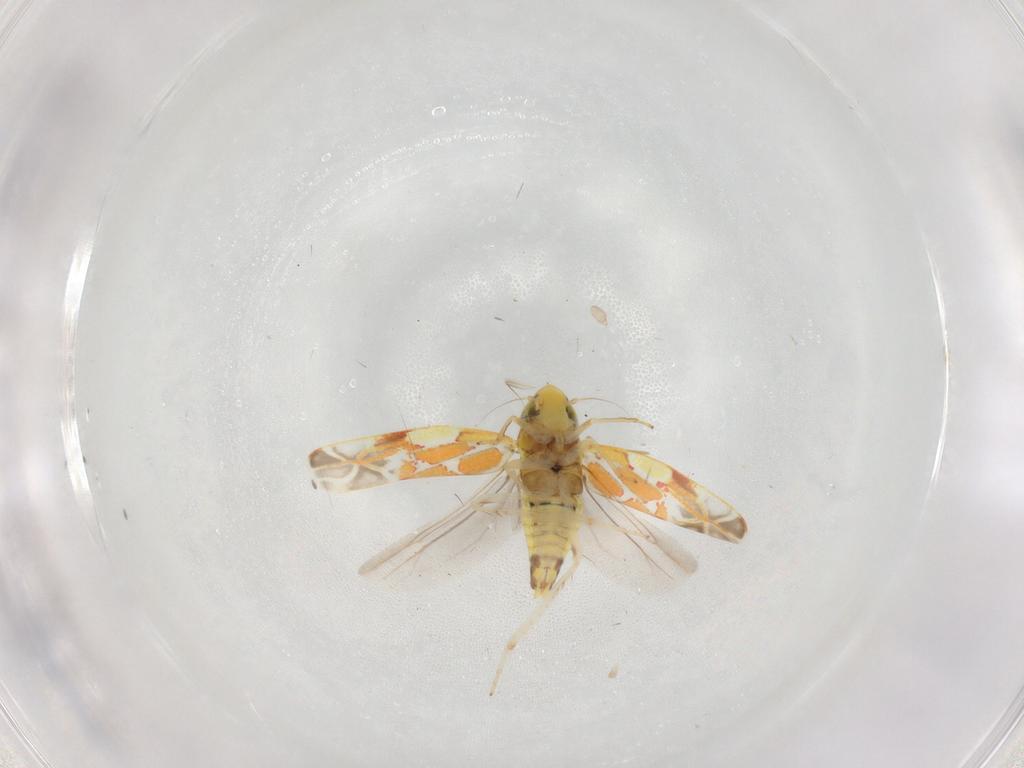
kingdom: Animalia
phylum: Arthropoda
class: Insecta
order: Hemiptera
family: Cicadellidae
